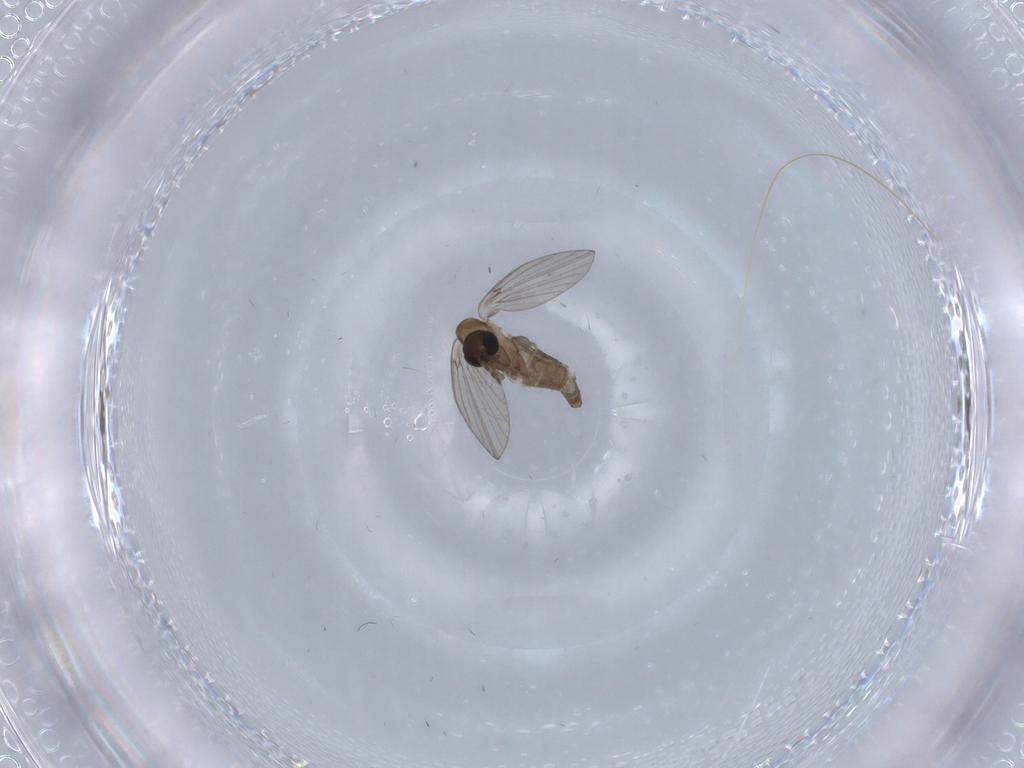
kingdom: Animalia
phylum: Arthropoda
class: Insecta
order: Diptera
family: Psychodidae
